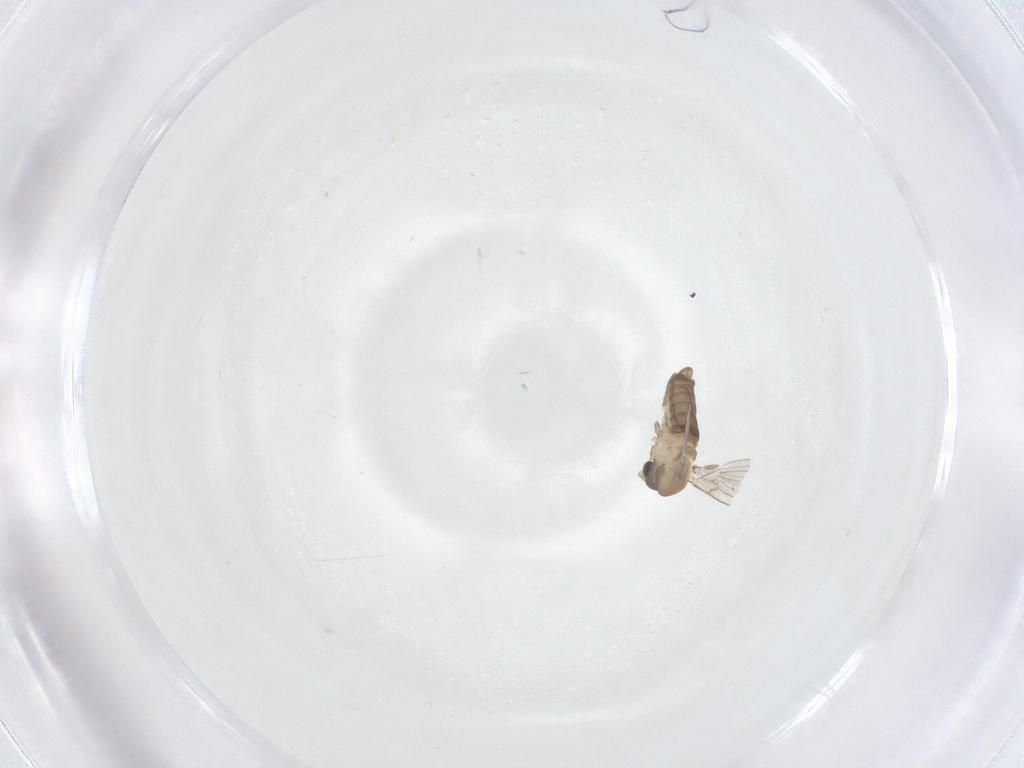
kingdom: Animalia
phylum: Arthropoda
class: Insecta
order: Diptera
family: Psychodidae
